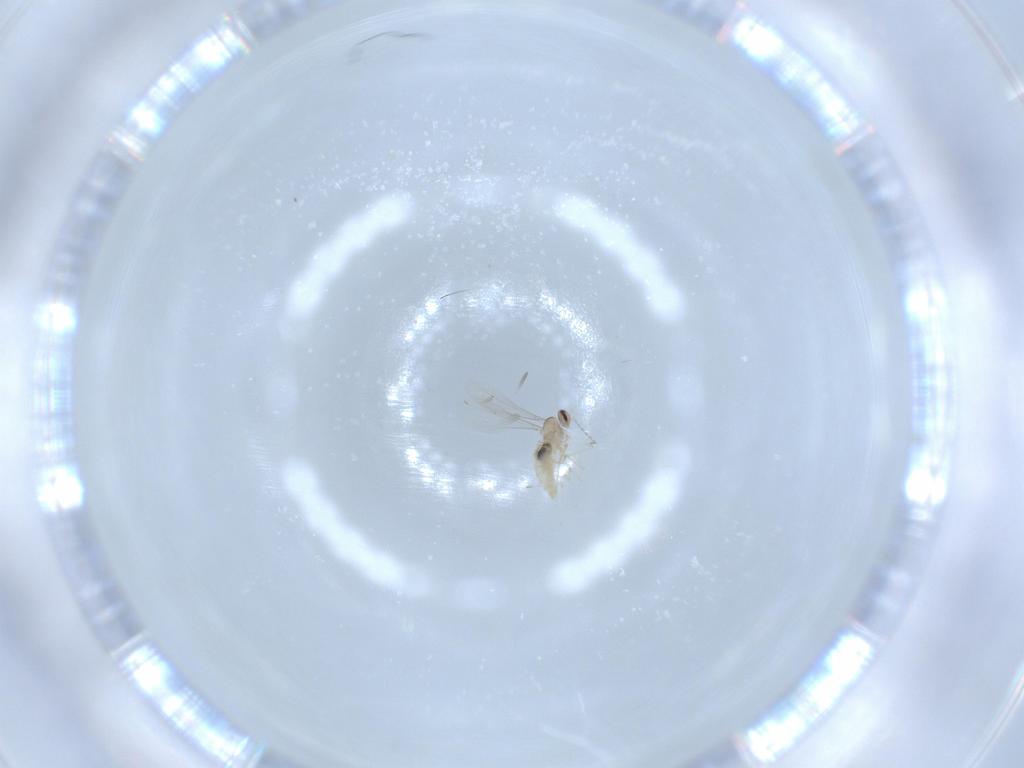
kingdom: Animalia
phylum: Arthropoda
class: Insecta
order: Diptera
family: Cecidomyiidae
